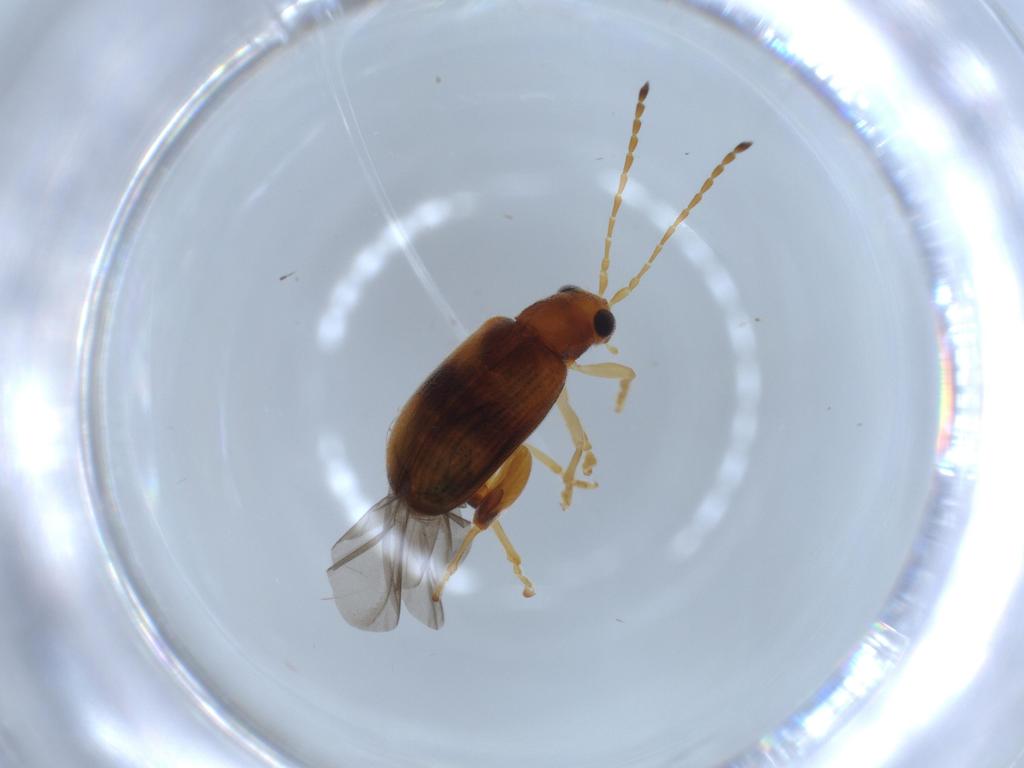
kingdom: Animalia
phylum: Arthropoda
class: Insecta
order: Coleoptera
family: Chrysomelidae
